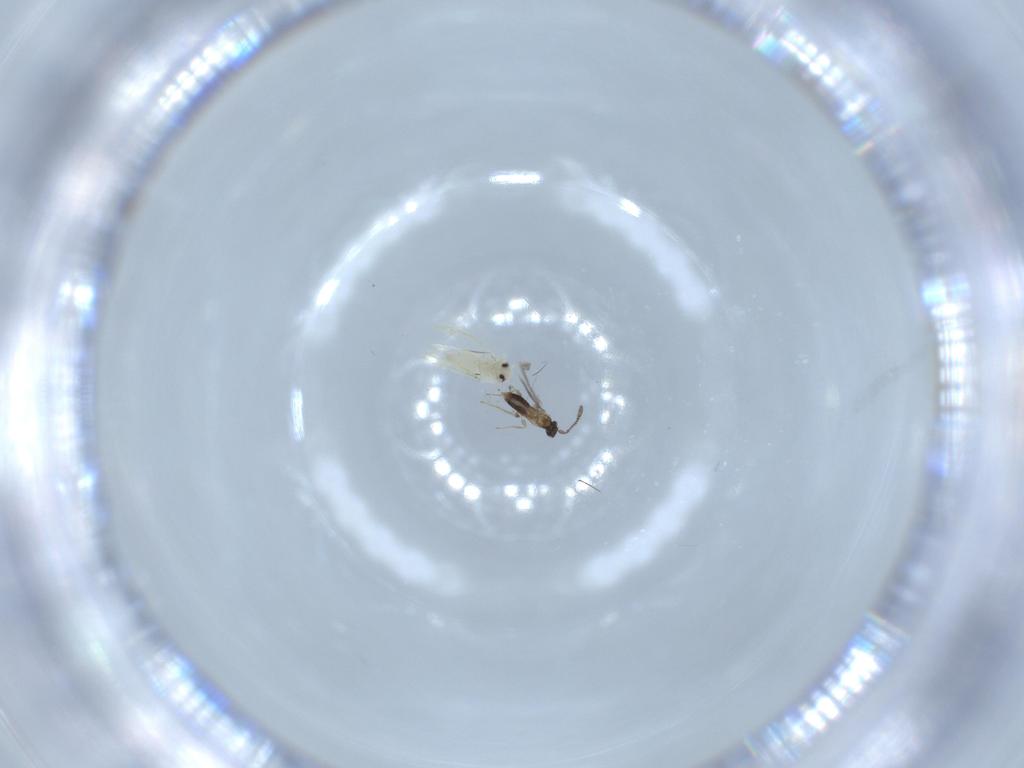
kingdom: Animalia
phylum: Arthropoda
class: Insecta
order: Hemiptera
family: Aleyrodidae
